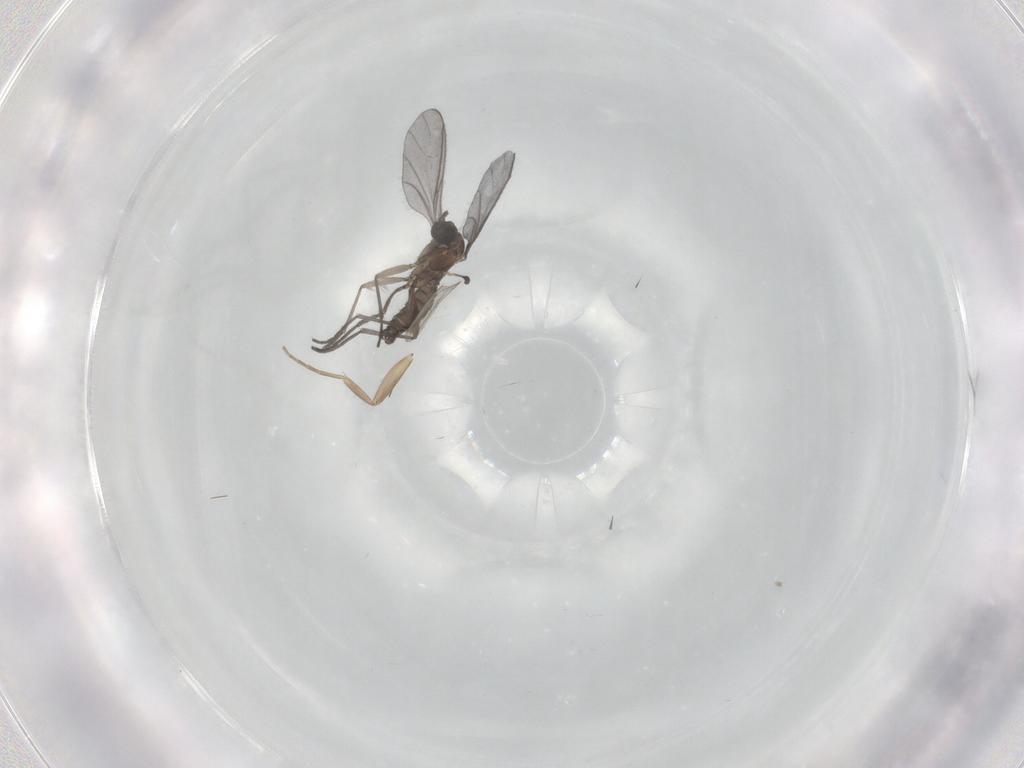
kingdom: Animalia
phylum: Arthropoda
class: Insecta
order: Diptera
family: Sciaridae
